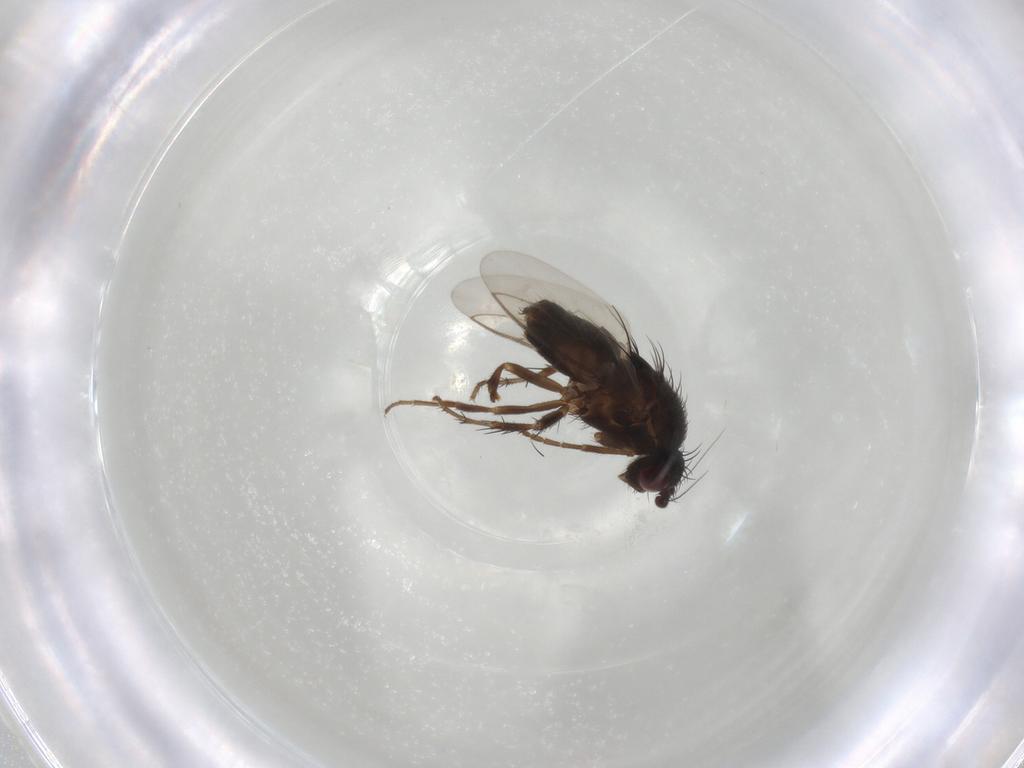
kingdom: Animalia
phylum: Arthropoda
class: Insecta
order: Diptera
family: Sphaeroceridae
